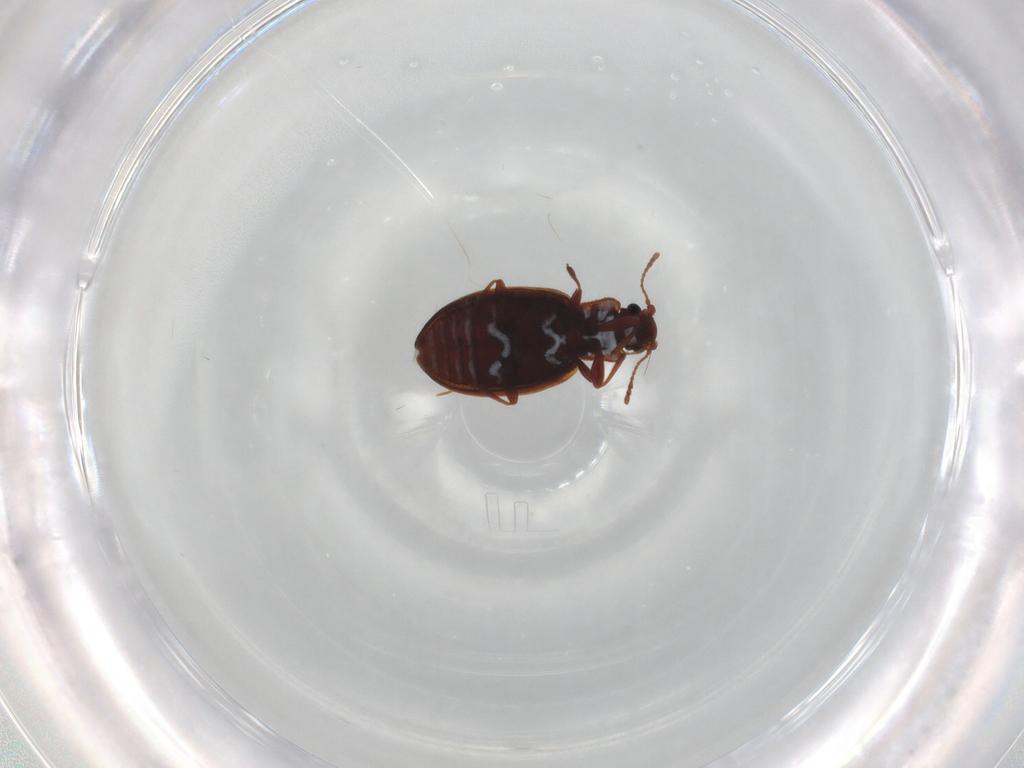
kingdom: Animalia
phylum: Arthropoda
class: Insecta
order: Coleoptera
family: Latridiidae
